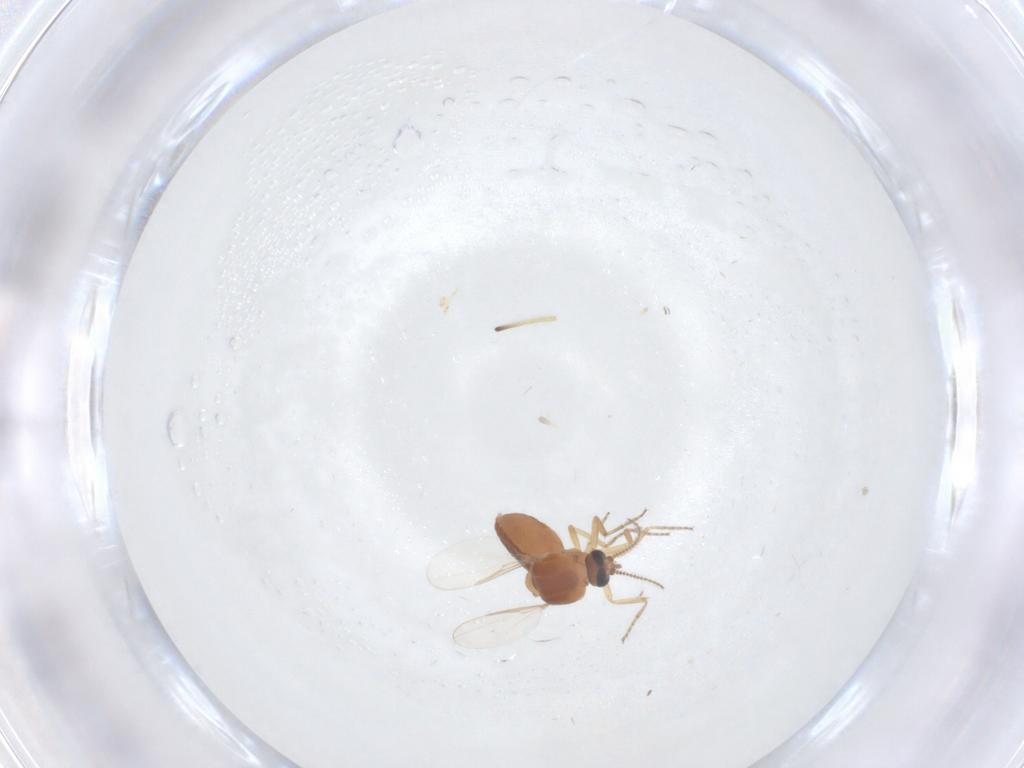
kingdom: Animalia
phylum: Arthropoda
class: Insecta
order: Diptera
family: Ceratopogonidae
